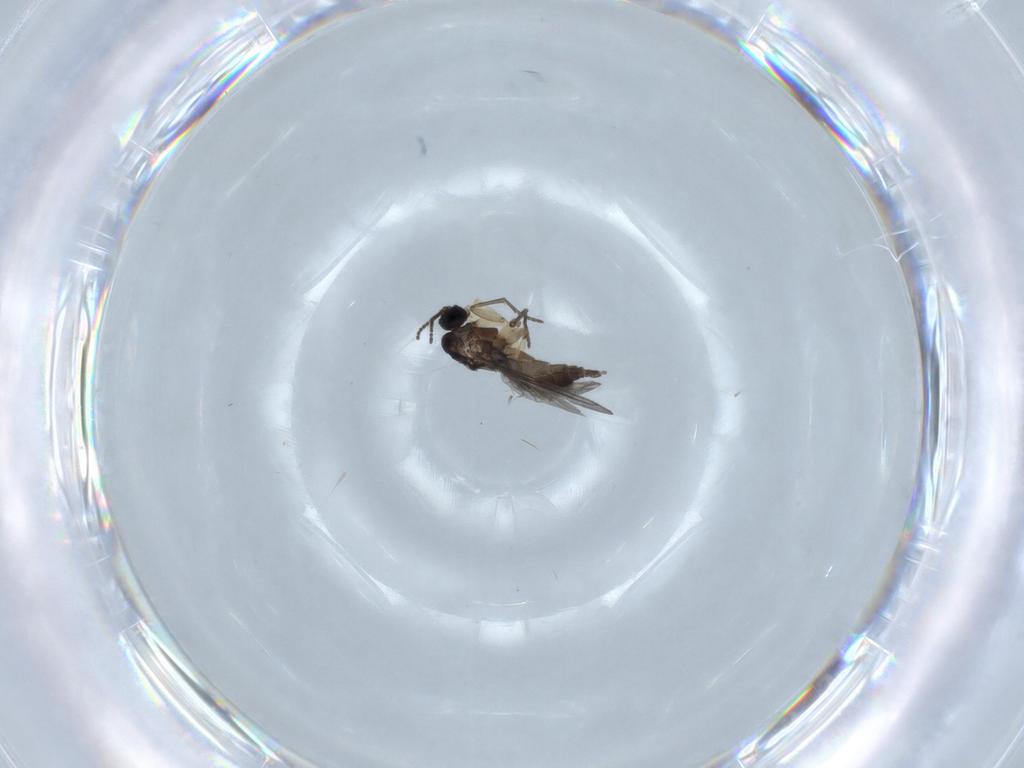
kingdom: Animalia
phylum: Arthropoda
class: Insecta
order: Diptera
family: Sciaridae
